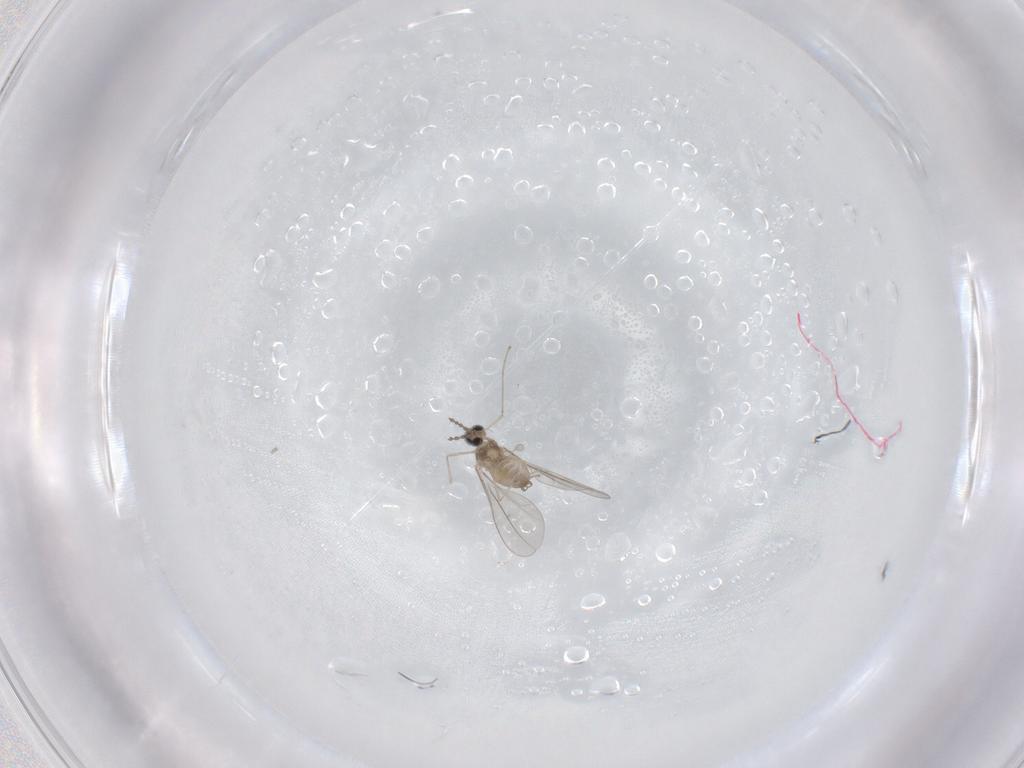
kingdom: Animalia
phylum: Arthropoda
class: Insecta
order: Diptera
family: Cecidomyiidae
